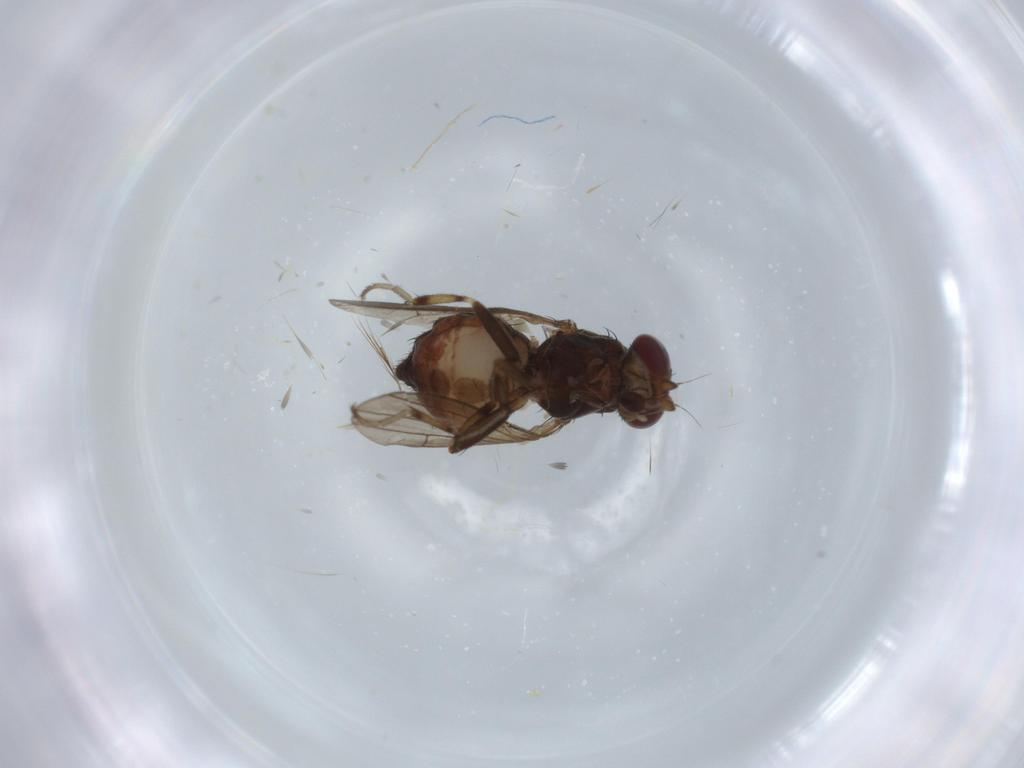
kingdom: Animalia
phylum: Arthropoda
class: Insecta
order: Diptera
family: Heleomyzidae
